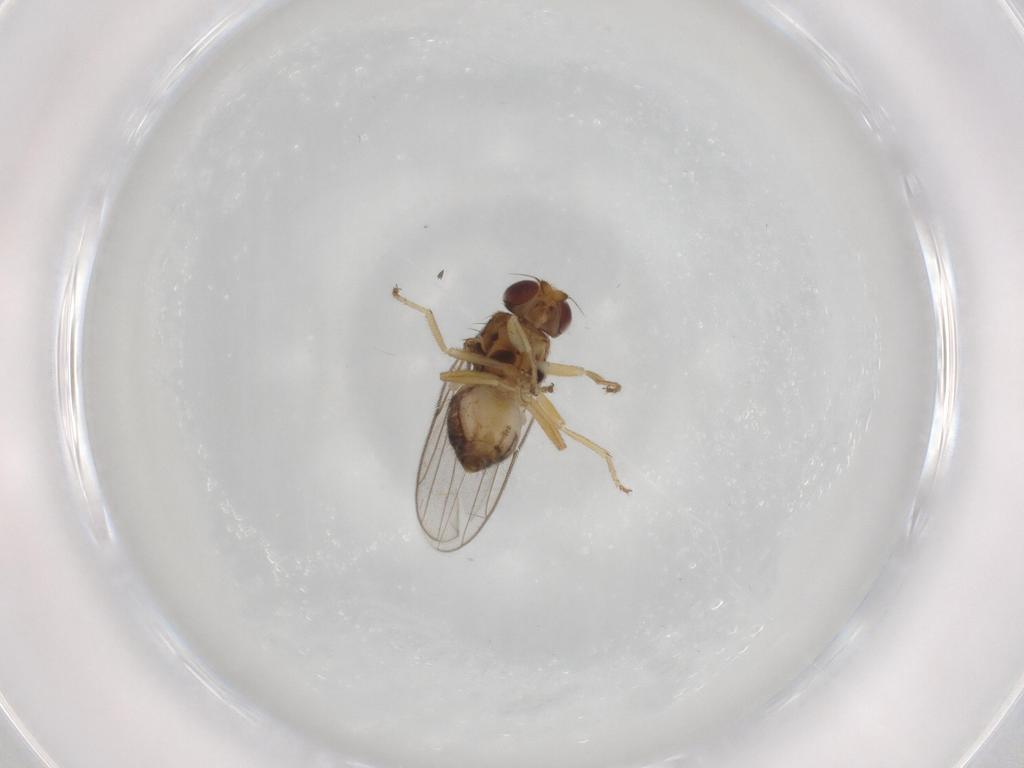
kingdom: Animalia
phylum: Arthropoda
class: Insecta
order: Diptera
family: Chloropidae
